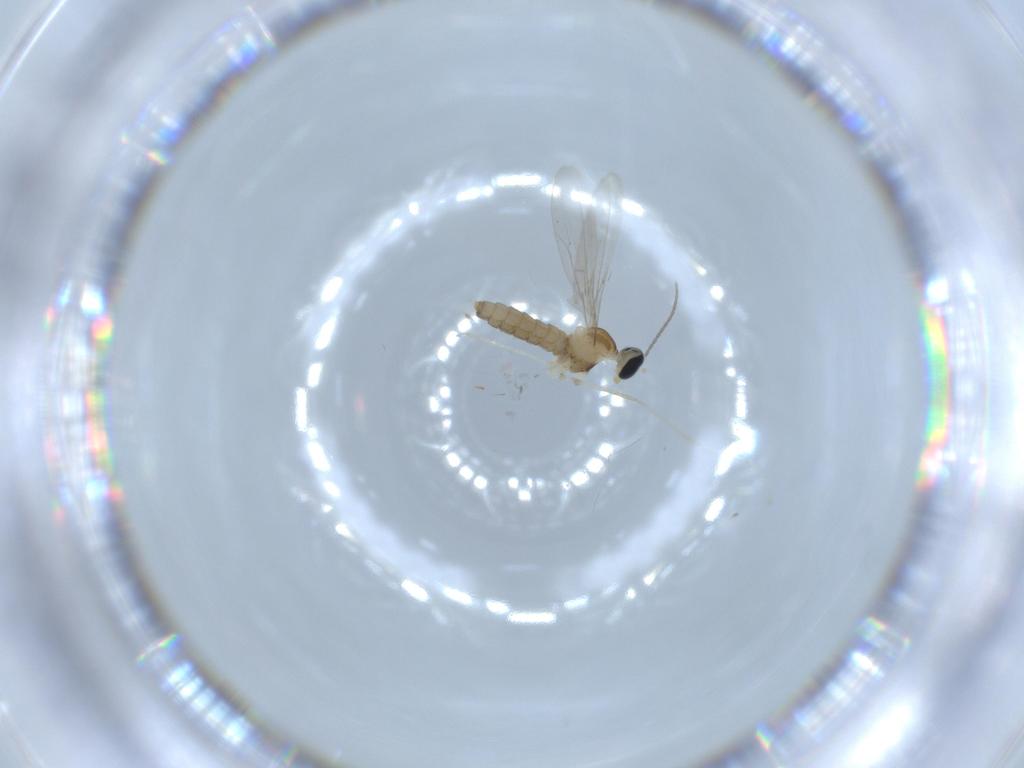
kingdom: Animalia
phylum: Arthropoda
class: Insecta
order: Diptera
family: Cecidomyiidae
